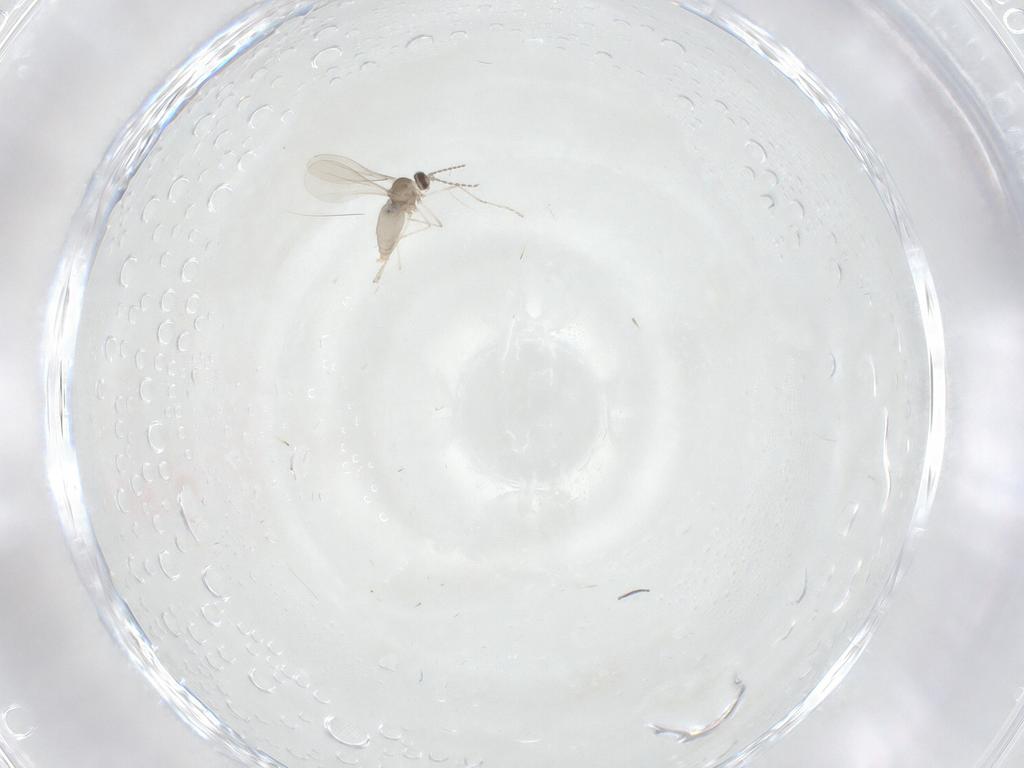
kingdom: Animalia
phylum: Arthropoda
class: Insecta
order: Diptera
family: Cecidomyiidae
